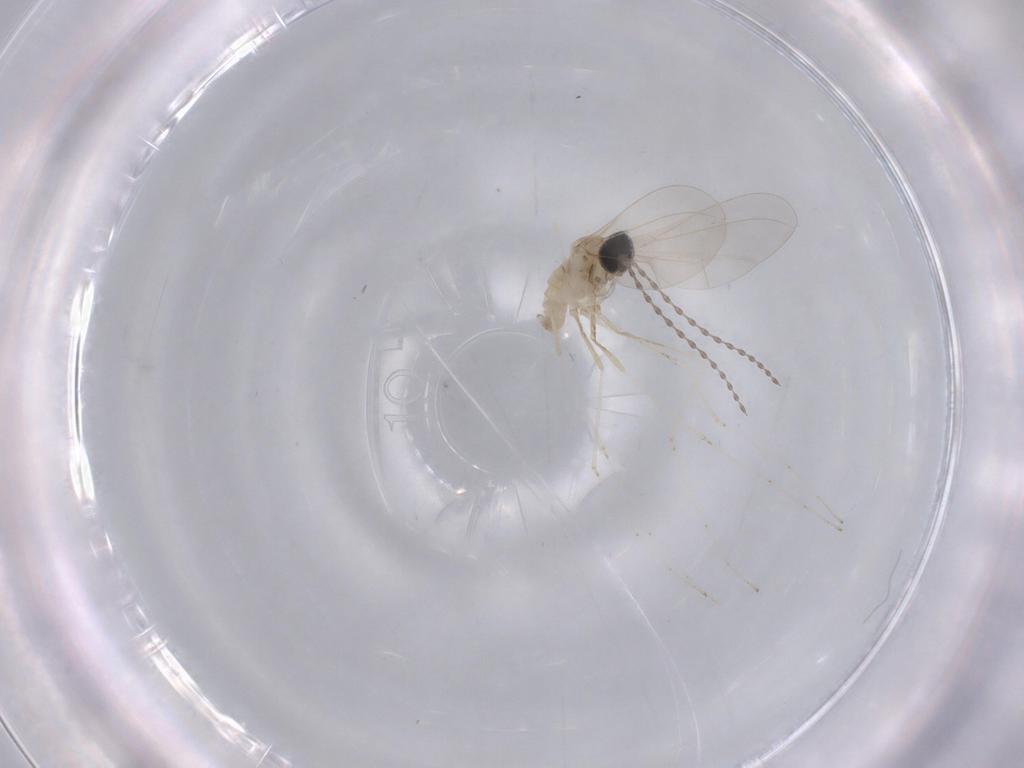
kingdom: Animalia
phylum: Arthropoda
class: Insecta
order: Diptera
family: Cecidomyiidae
